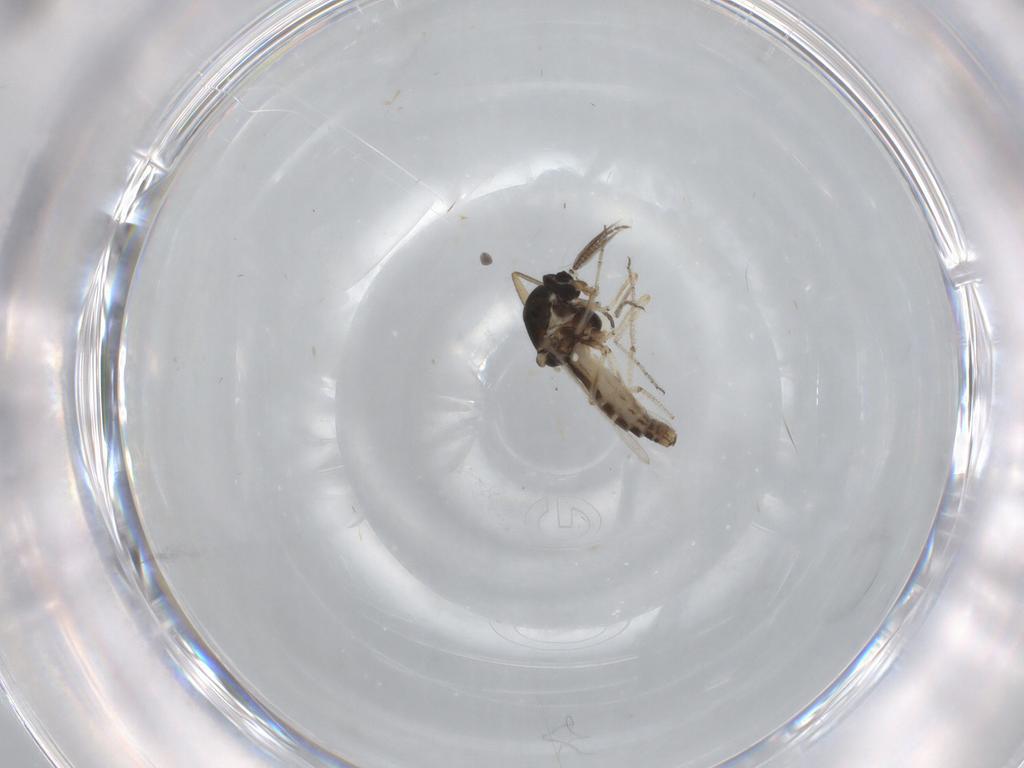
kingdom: Animalia
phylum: Arthropoda
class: Insecta
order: Diptera
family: Ceratopogonidae
